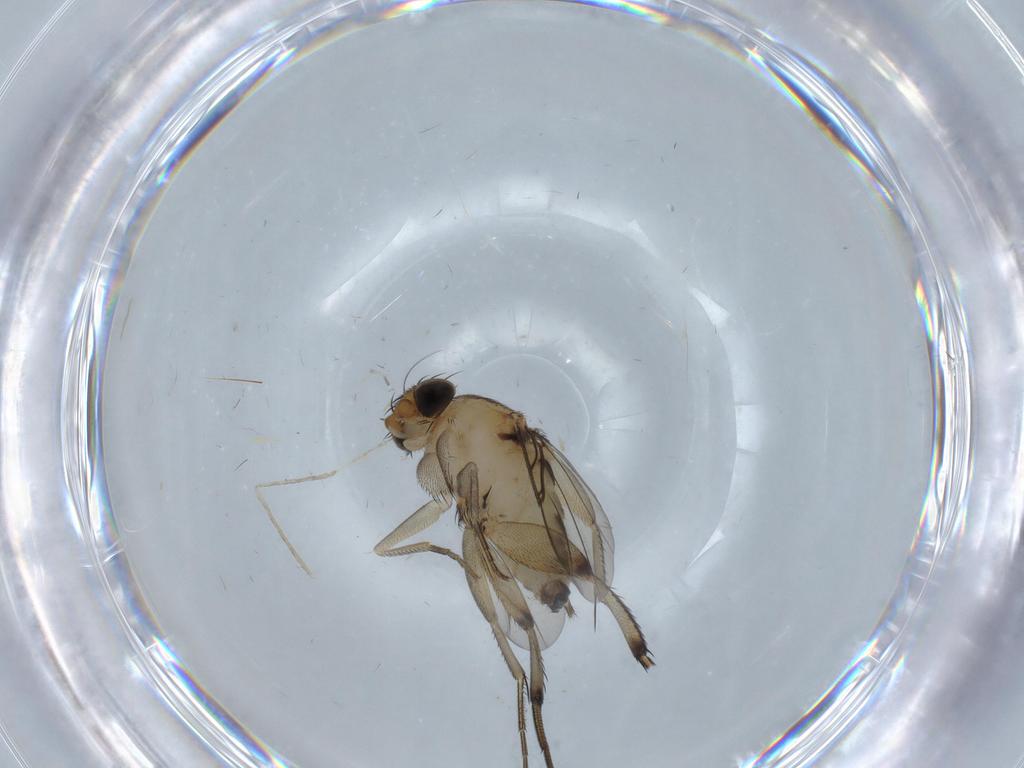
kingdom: Animalia
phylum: Arthropoda
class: Insecta
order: Diptera
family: Phoridae
